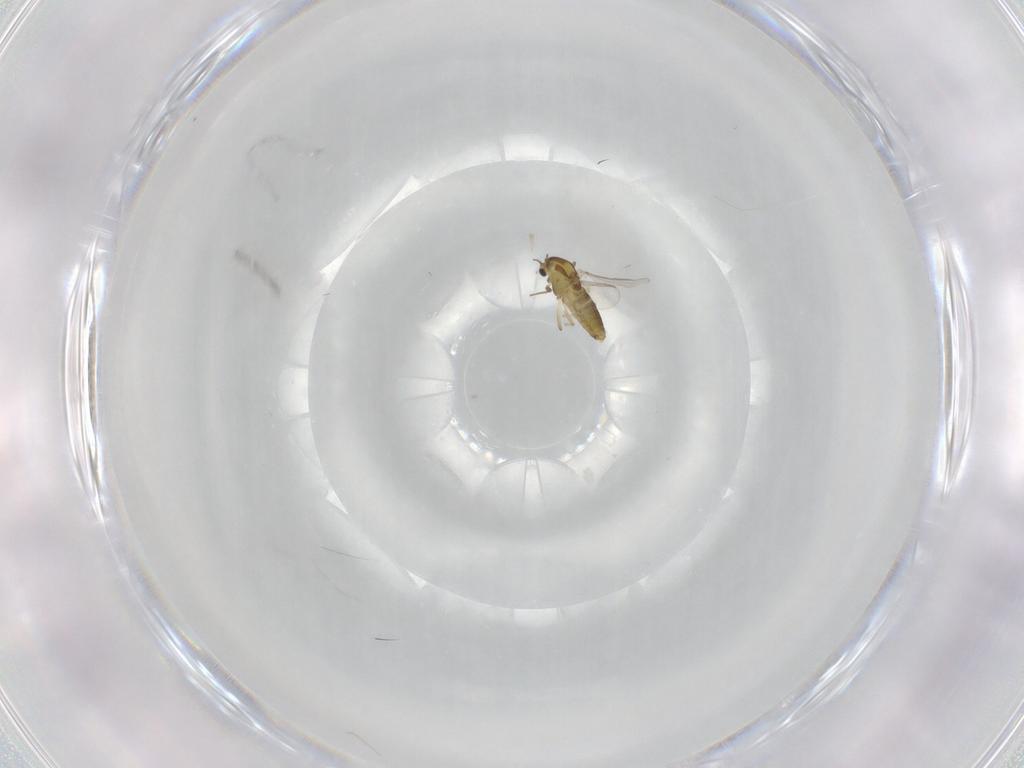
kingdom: Animalia
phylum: Arthropoda
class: Insecta
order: Diptera
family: Chironomidae
